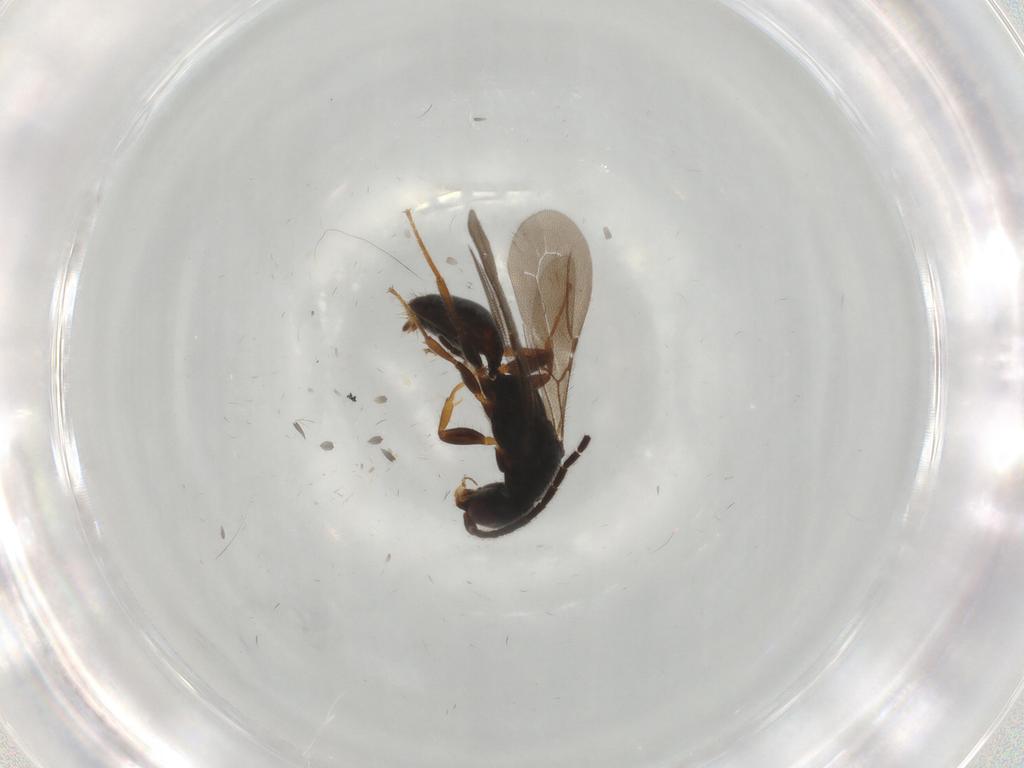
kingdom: Animalia
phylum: Arthropoda
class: Insecta
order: Hymenoptera
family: Bethylidae
